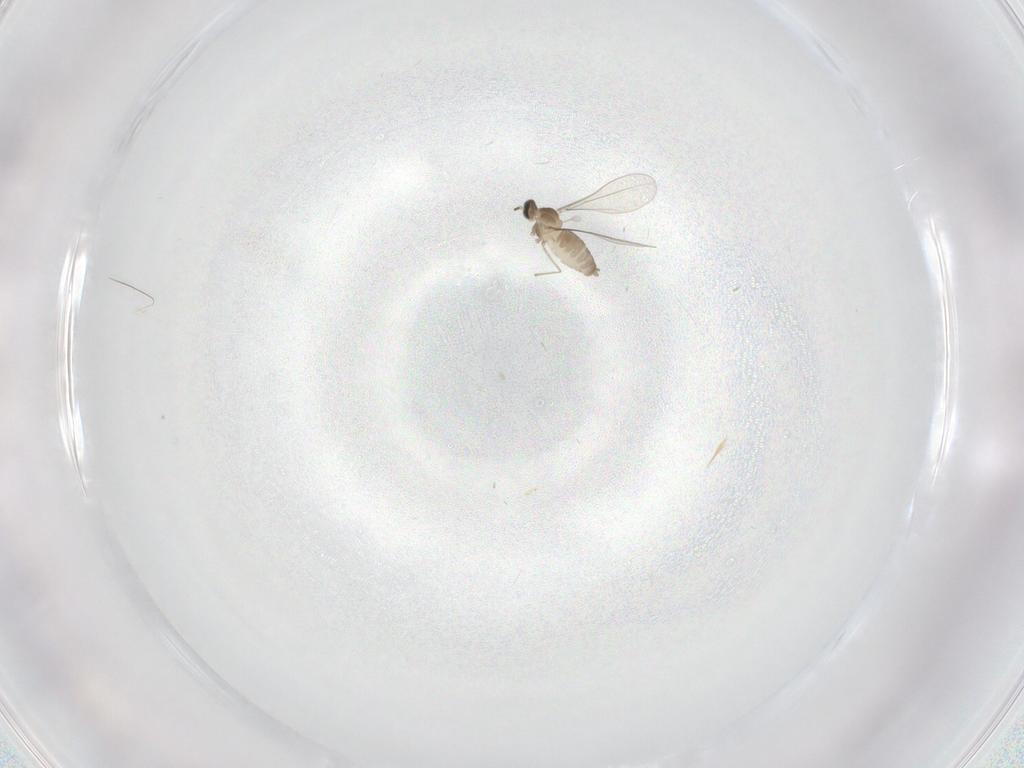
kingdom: Animalia
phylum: Arthropoda
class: Insecta
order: Diptera
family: Cecidomyiidae
